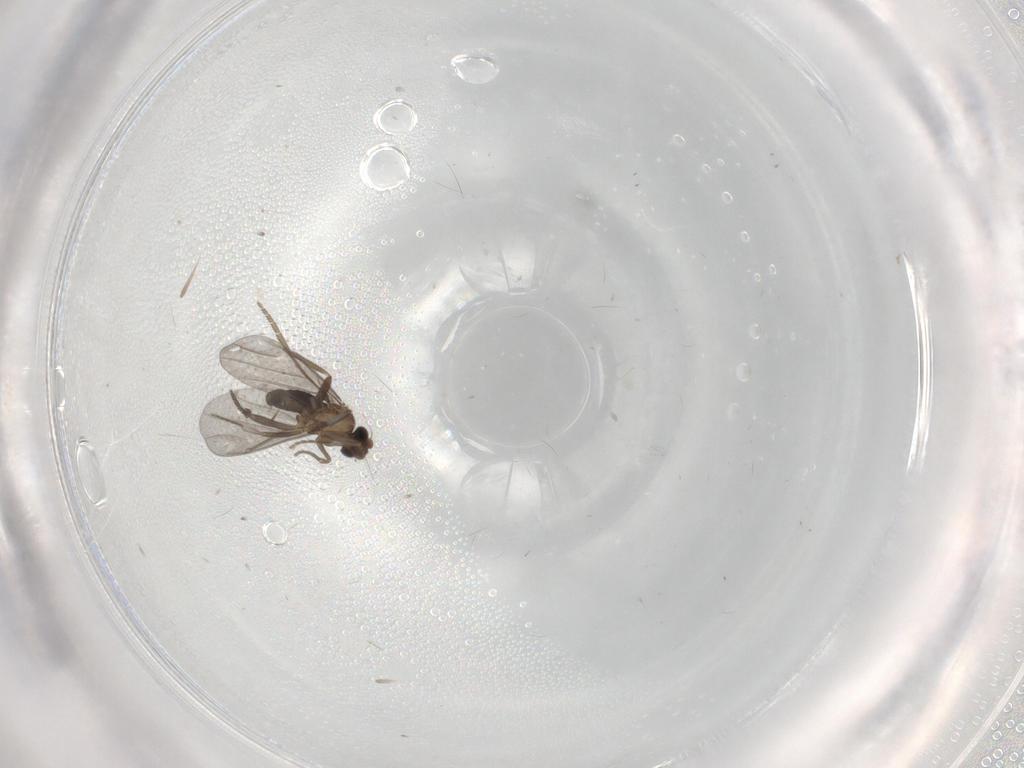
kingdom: Animalia
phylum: Arthropoda
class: Insecta
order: Diptera
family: Phoridae
